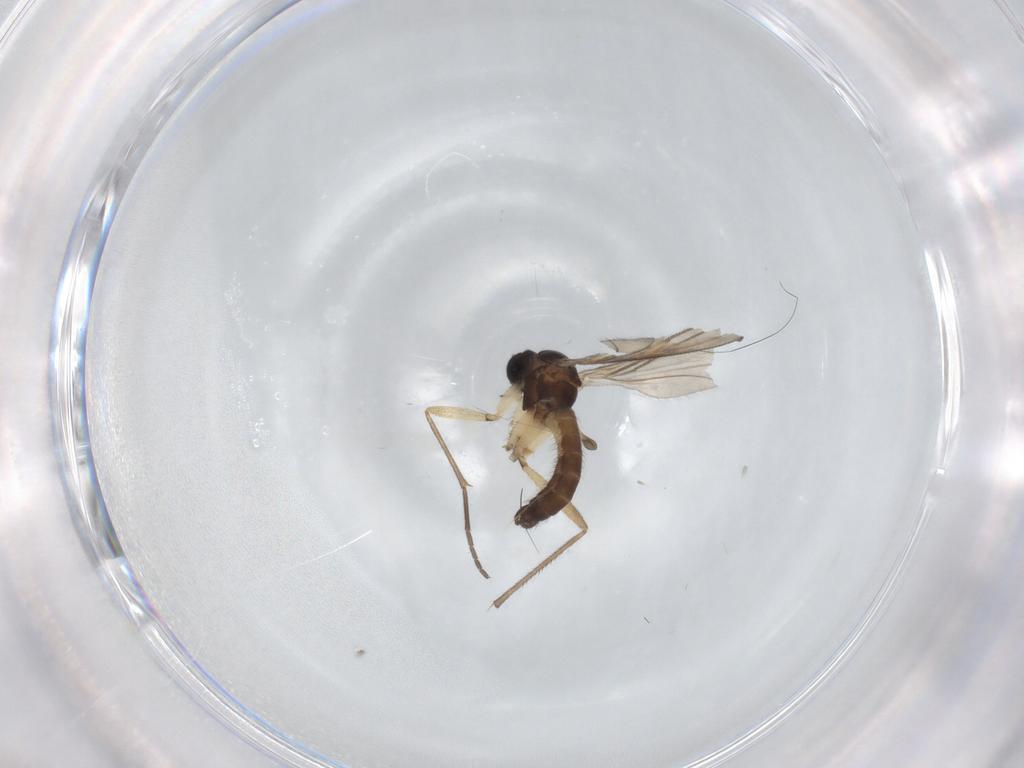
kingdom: Animalia
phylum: Arthropoda
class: Insecta
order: Diptera
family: Sciaridae
